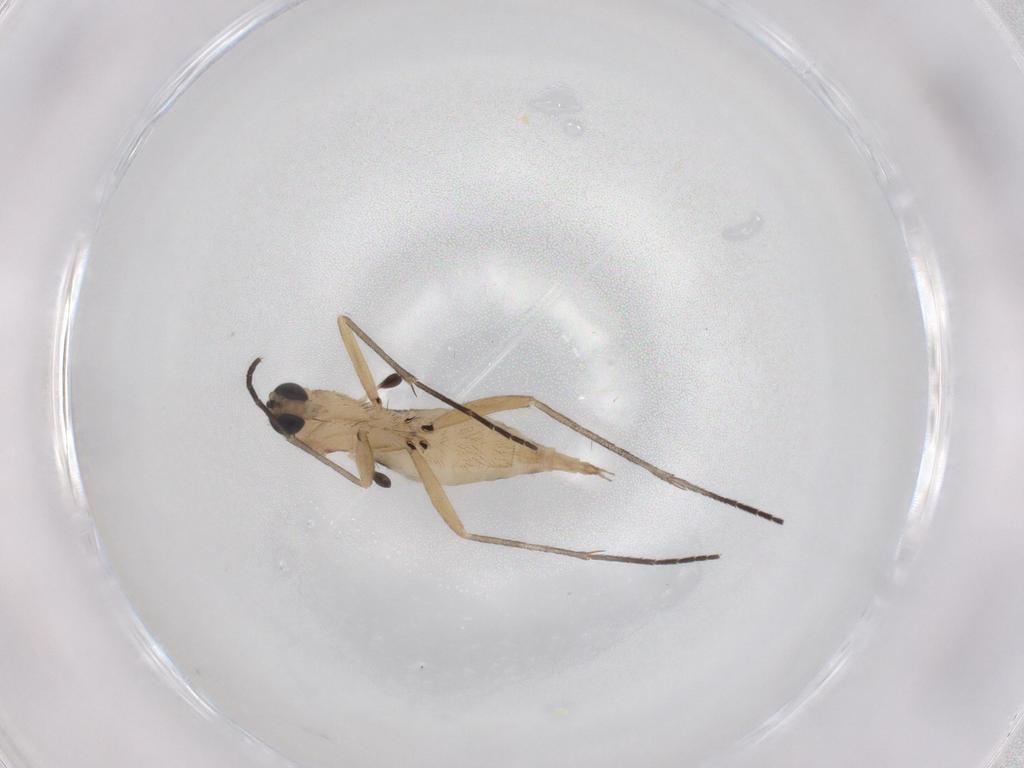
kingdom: Animalia
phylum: Arthropoda
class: Insecta
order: Diptera
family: Sciaridae
